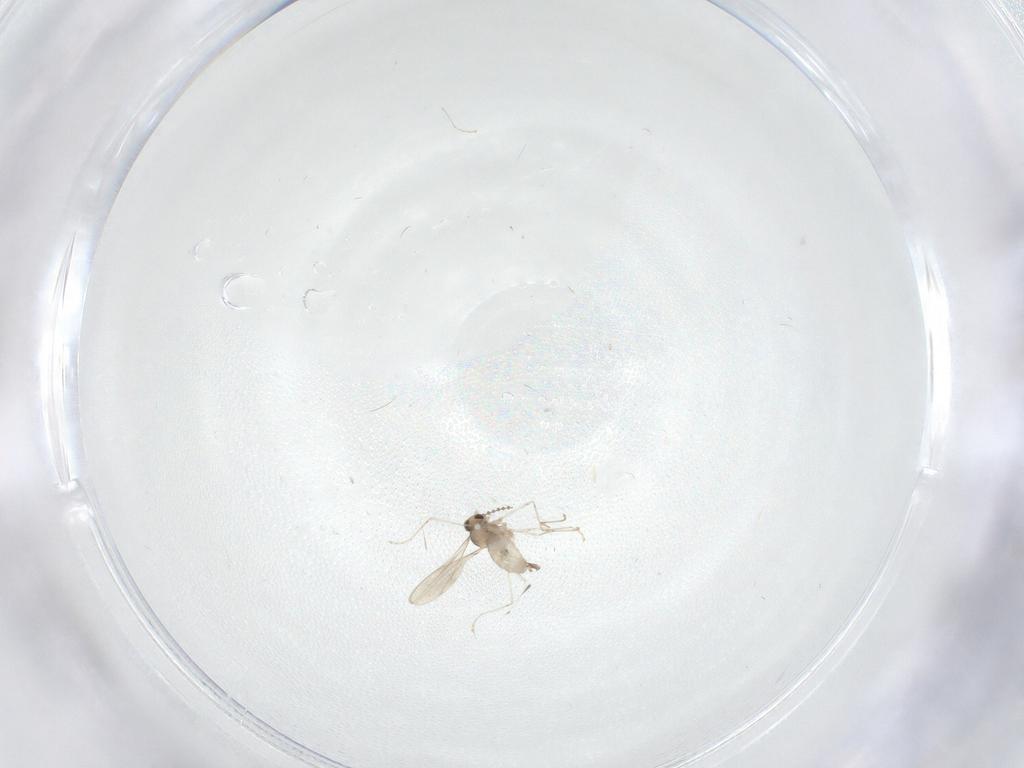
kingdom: Animalia
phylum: Arthropoda
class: Insecta
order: Diptera
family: Cecidomyiidae
